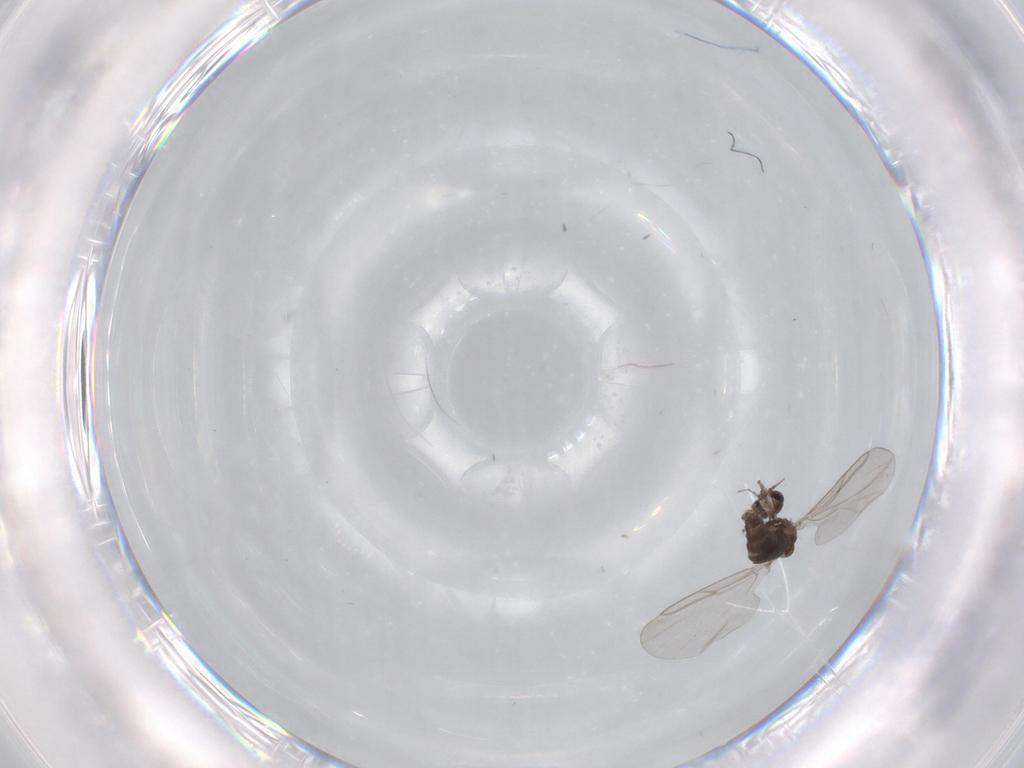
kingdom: Animalia
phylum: Arthropoda
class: Insecta
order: Diptera
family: Cecidomyiidae
